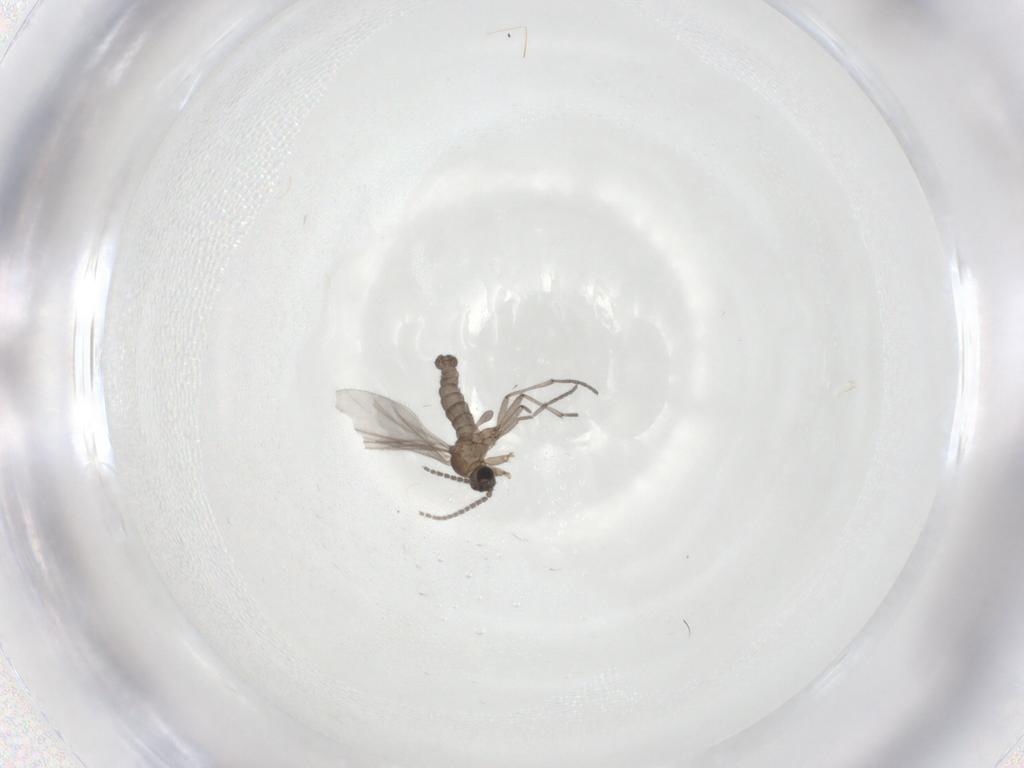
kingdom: Animalia
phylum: Arthropoda
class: Insecta
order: Diptera
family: Sciaridae
